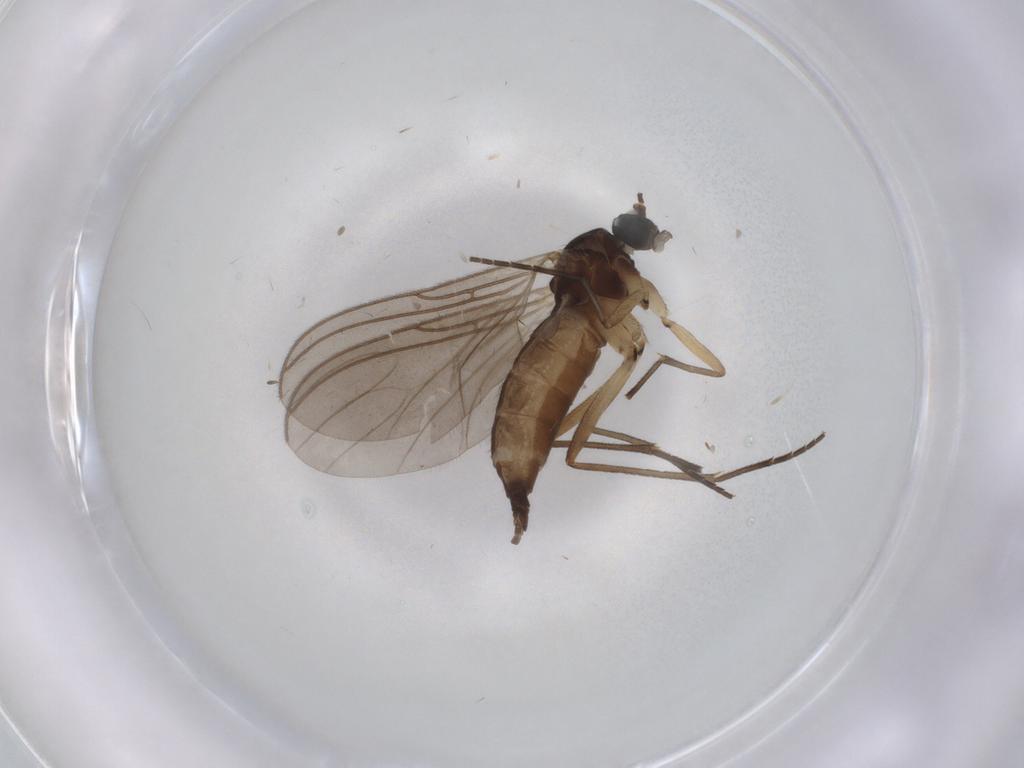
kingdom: Animalia
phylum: Arthropoda
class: Insecta
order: Diptera
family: Sciaridae
